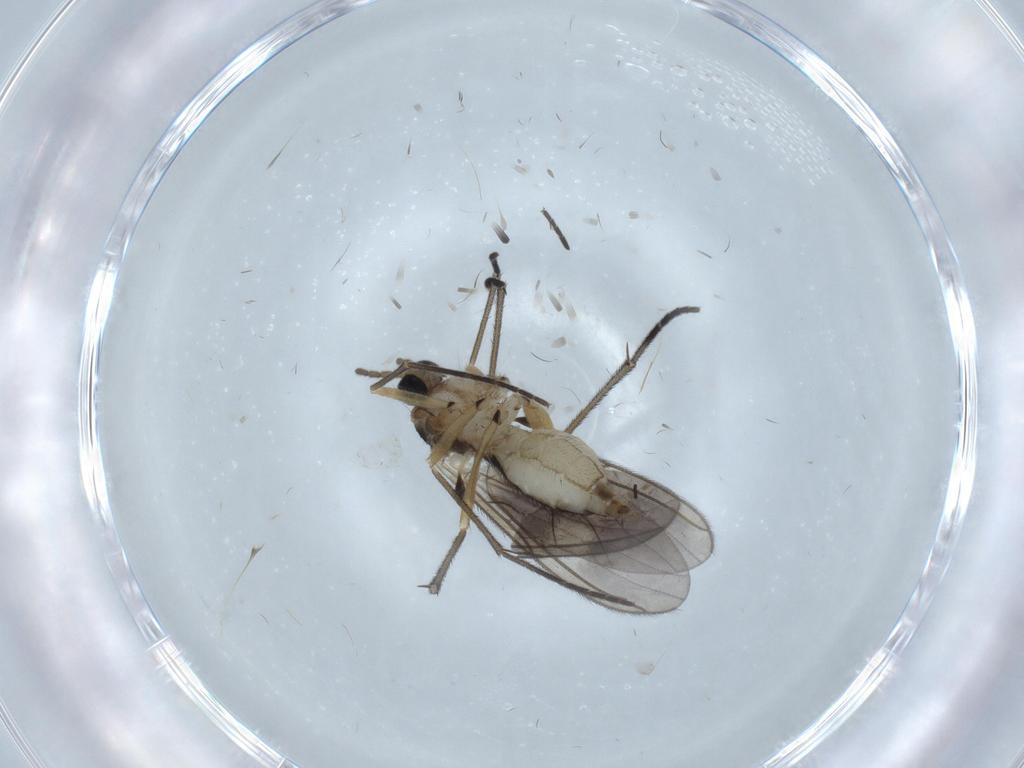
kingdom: Animalia
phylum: Arthropoda
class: Insecta
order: Diptera
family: Sciaridae
